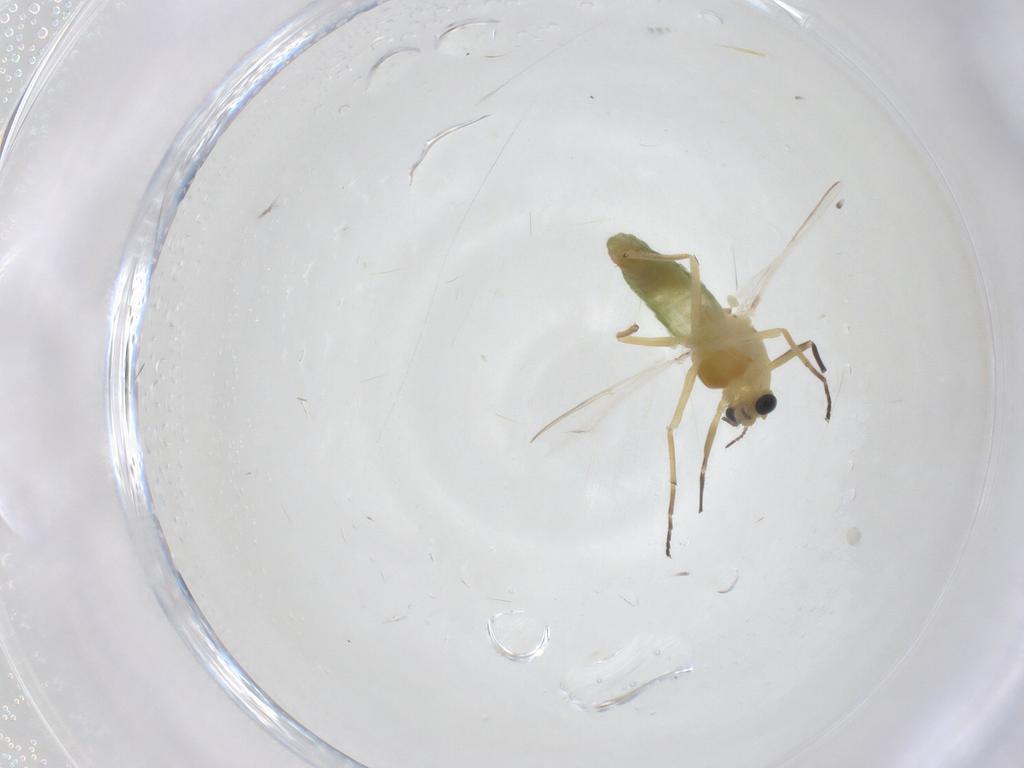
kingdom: Animalia
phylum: Arthropoda
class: Insecta
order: Diptera
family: Chironomidae
